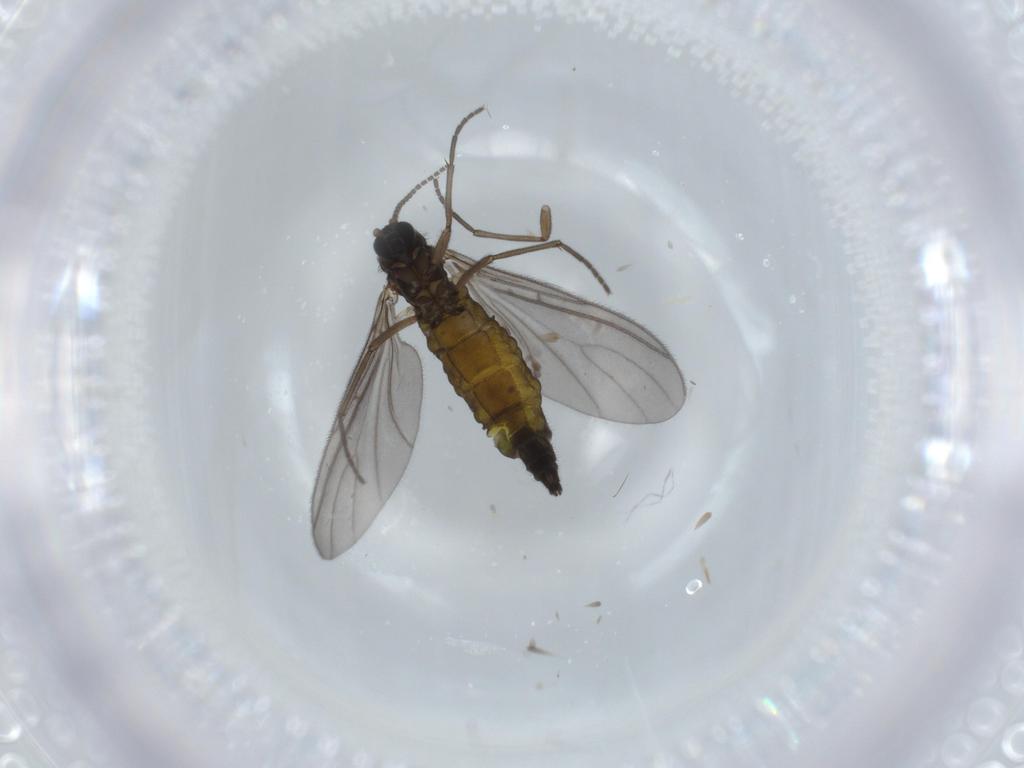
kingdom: Animalia
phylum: Arthropoda
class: Insecta
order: Diptera
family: Sciaridae
